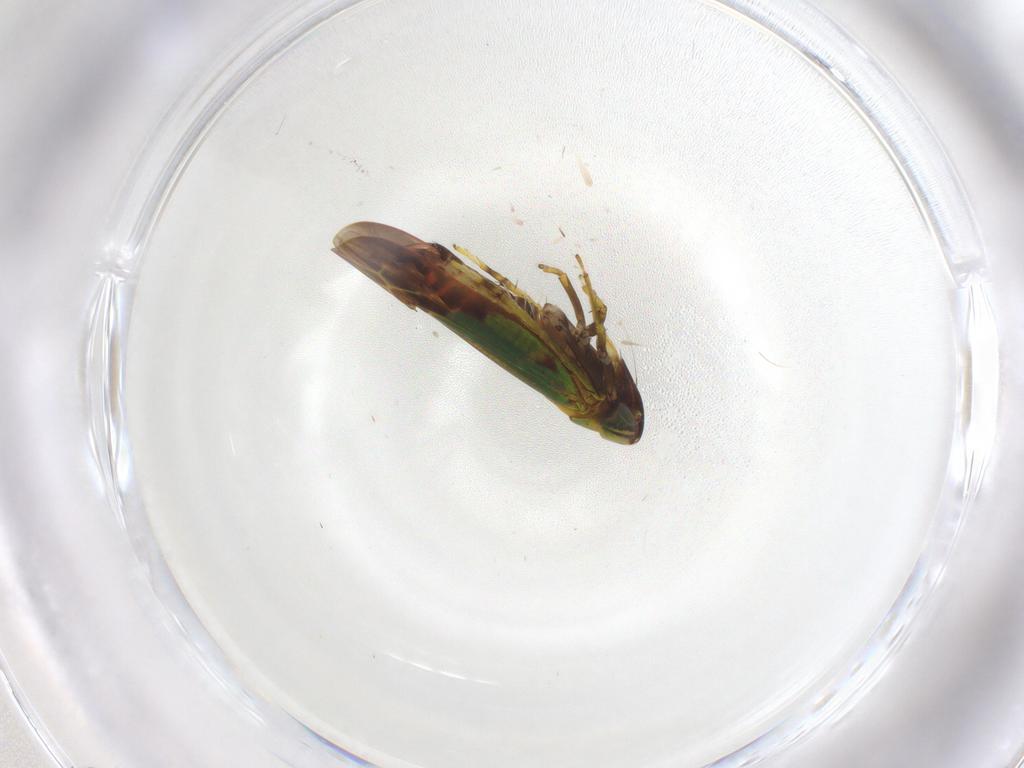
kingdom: Animalia
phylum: Arthropoda
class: Insecta
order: Hemiptera
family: Cicadellidae
